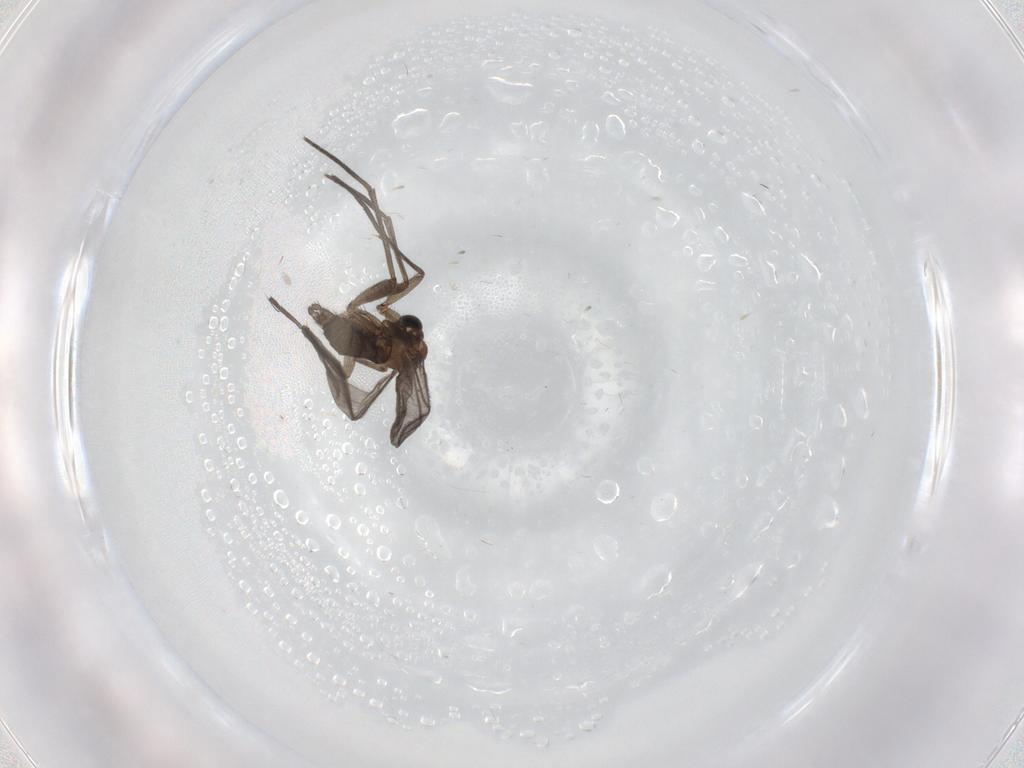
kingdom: Animalia
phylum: Arthropoda
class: Insecta
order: Diptera
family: Sciaridae
